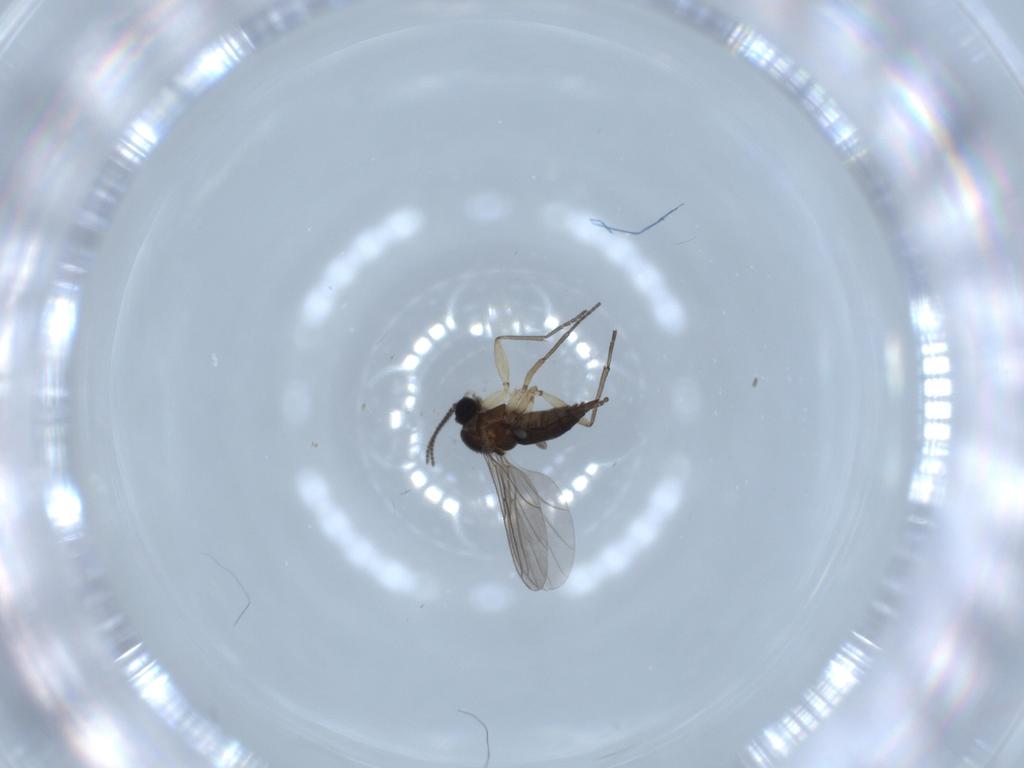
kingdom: Animalia
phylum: Arthropoda
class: Insecta
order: Diptera
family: Sciaridae
